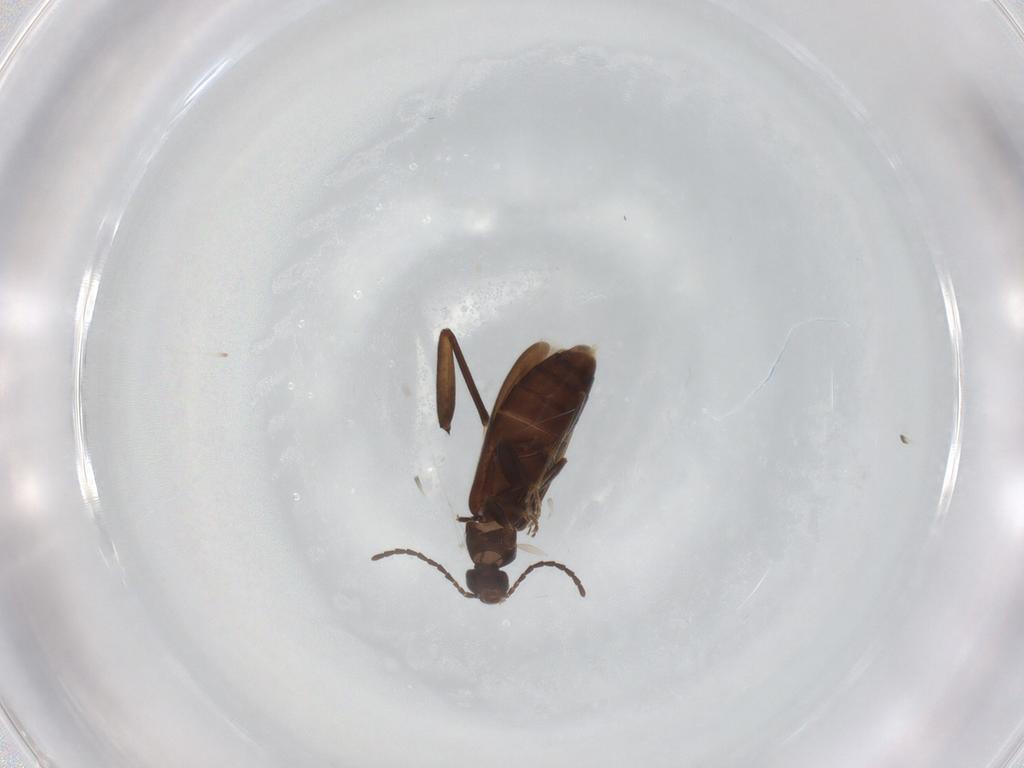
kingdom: Animalia
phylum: Arthropoda
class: Insecta
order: Coleoptera
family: Scraptiidae
